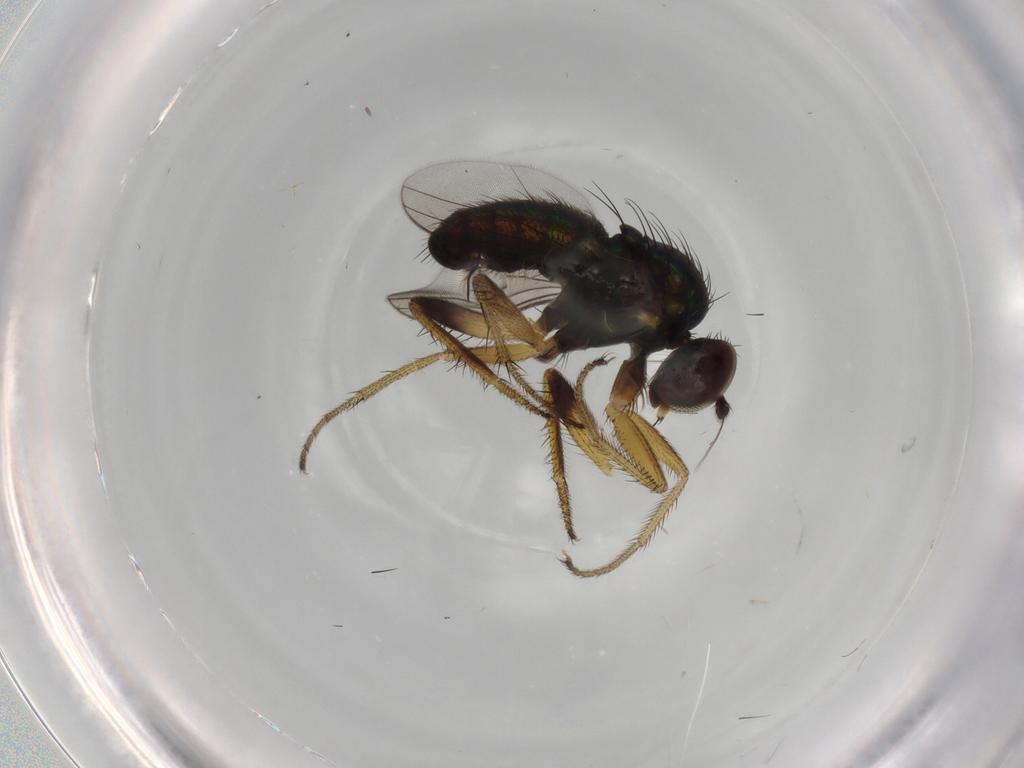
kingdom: Animalia
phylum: Arthropoda
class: Insecta
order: Diptera
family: Dolichopodidae
